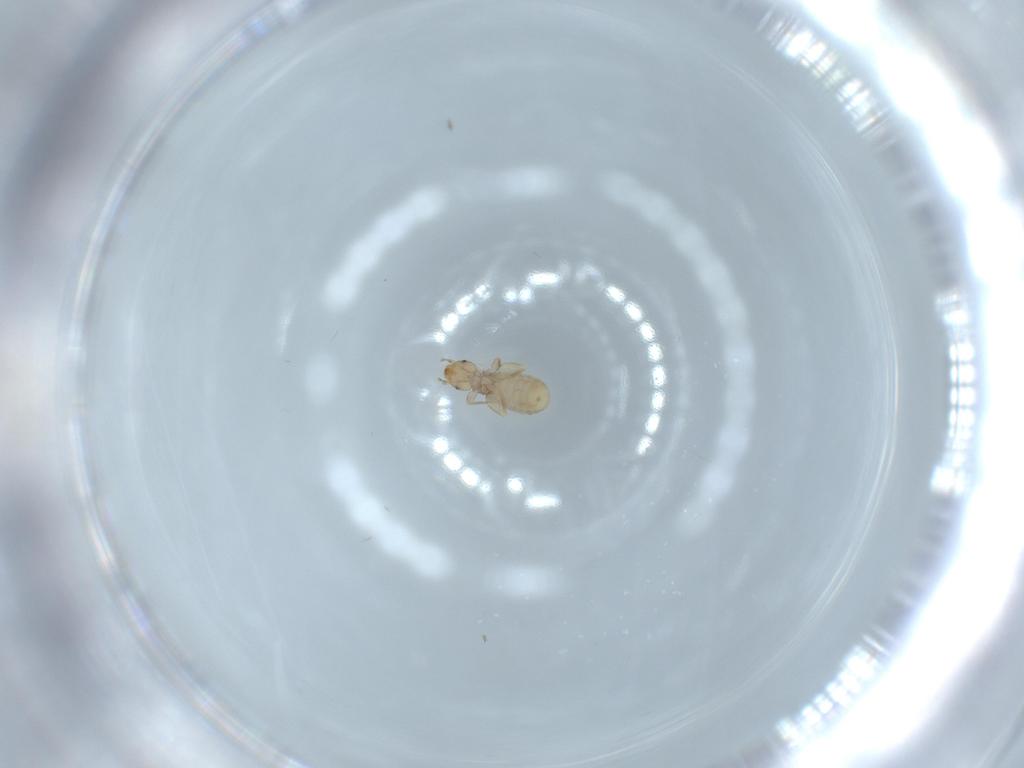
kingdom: Animalia
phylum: Arthropoda
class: Insecta
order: Psocodea
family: Liposcelididae
